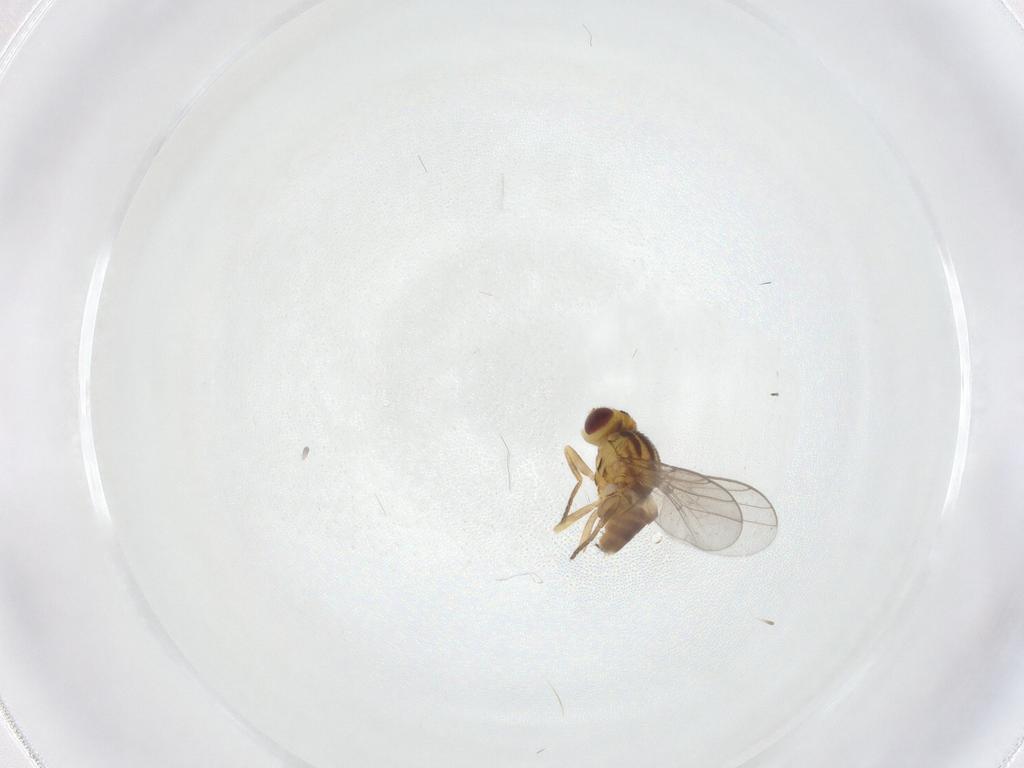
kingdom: Animalia
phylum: Arthropoda
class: Insecta
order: Diptera
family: Chloropidae
